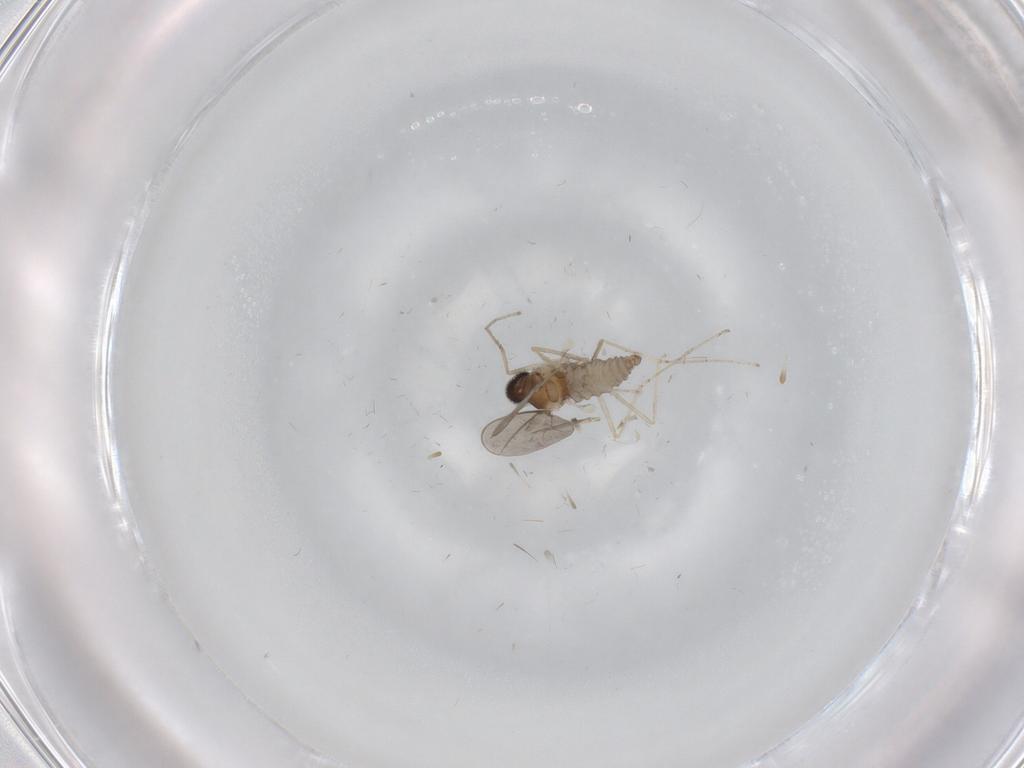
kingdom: Animalia
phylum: Arthropoda
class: Insecta
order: Diptera
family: Cecidomyiidae
